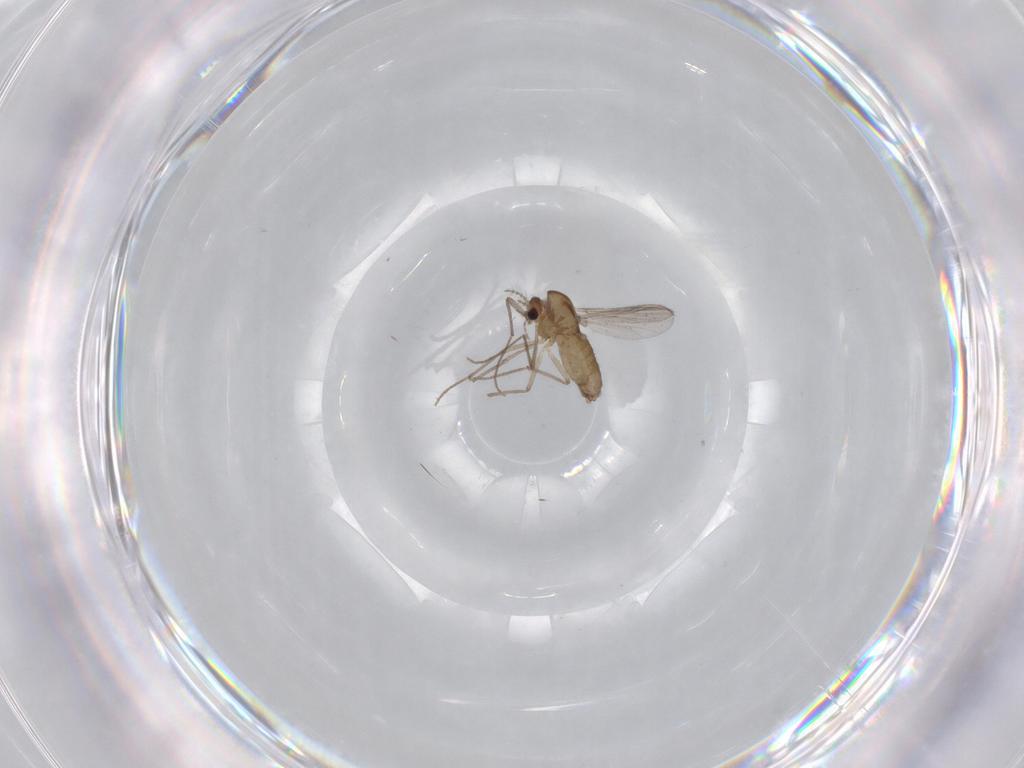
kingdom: Animalia
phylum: Arthropoda
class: Insecta
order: Diptera
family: Chironomidae
